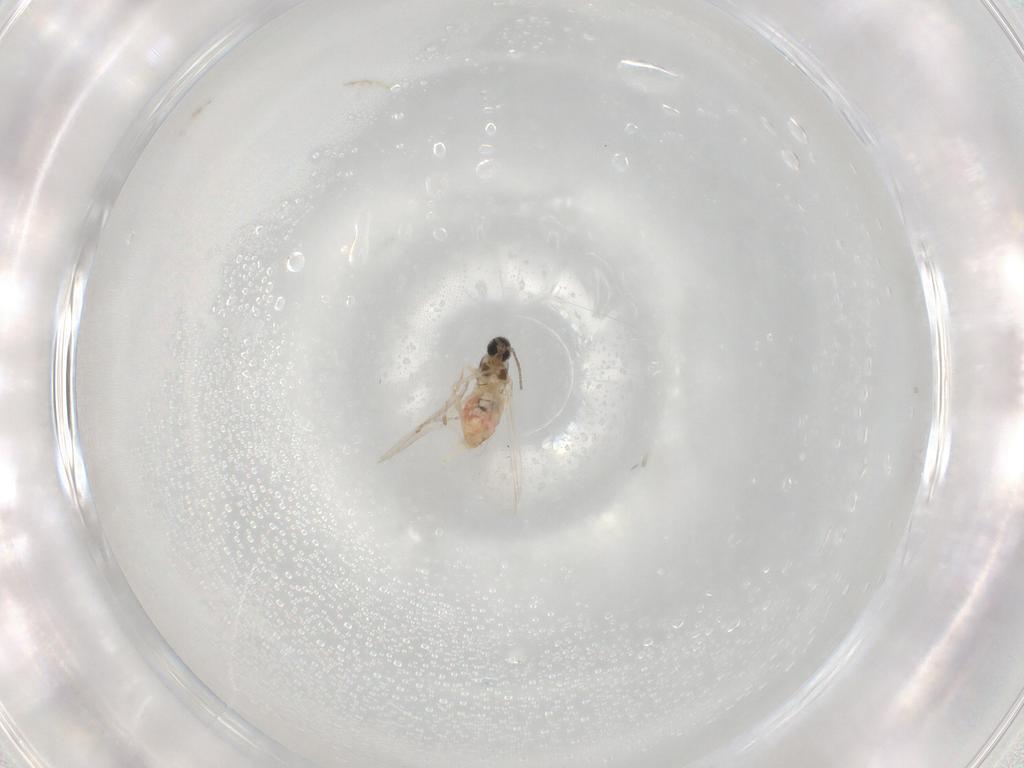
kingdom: Animalia
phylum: Arthropoda
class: Insecta
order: Diptera
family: Cecidomyiidae
